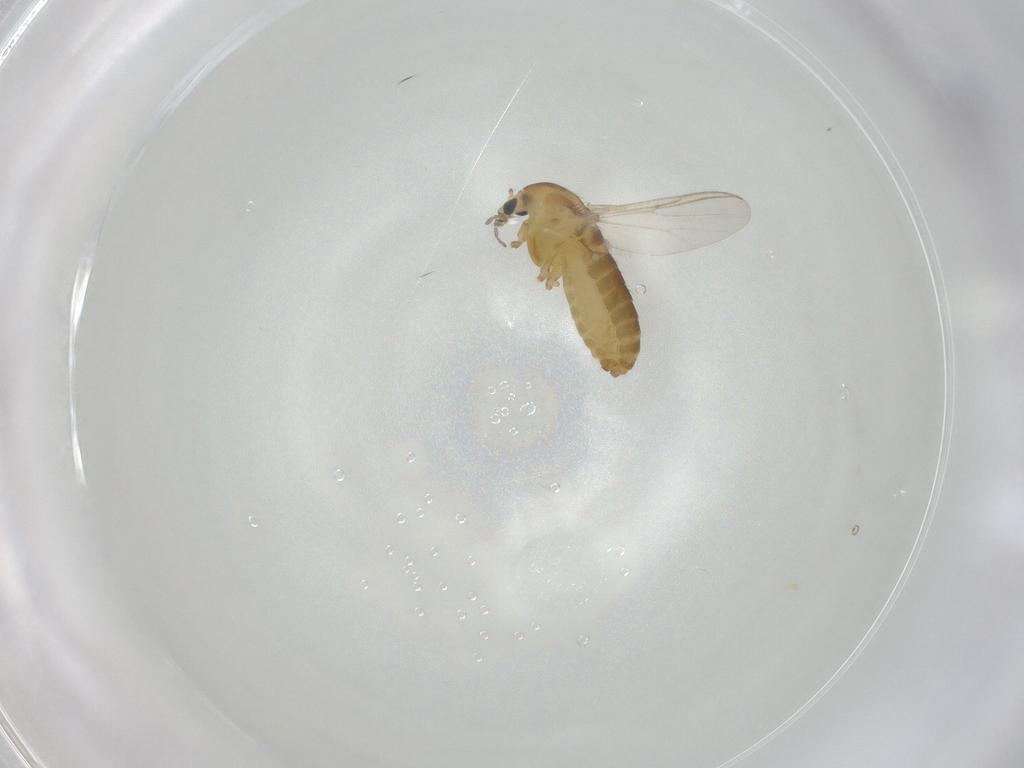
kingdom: Animalia
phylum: Arthropoda
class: Insecta
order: Diptera
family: Chironomidae
